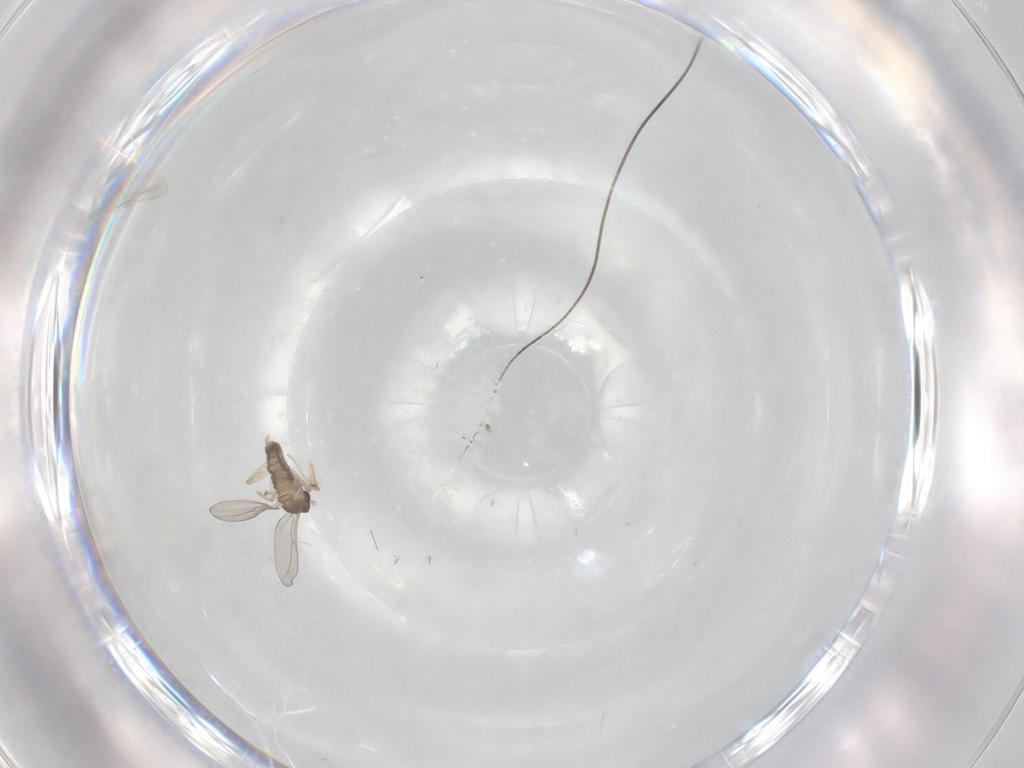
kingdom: Animalia
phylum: Arthropoda
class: Insecta
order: Diptera
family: Cecidomyiidae
